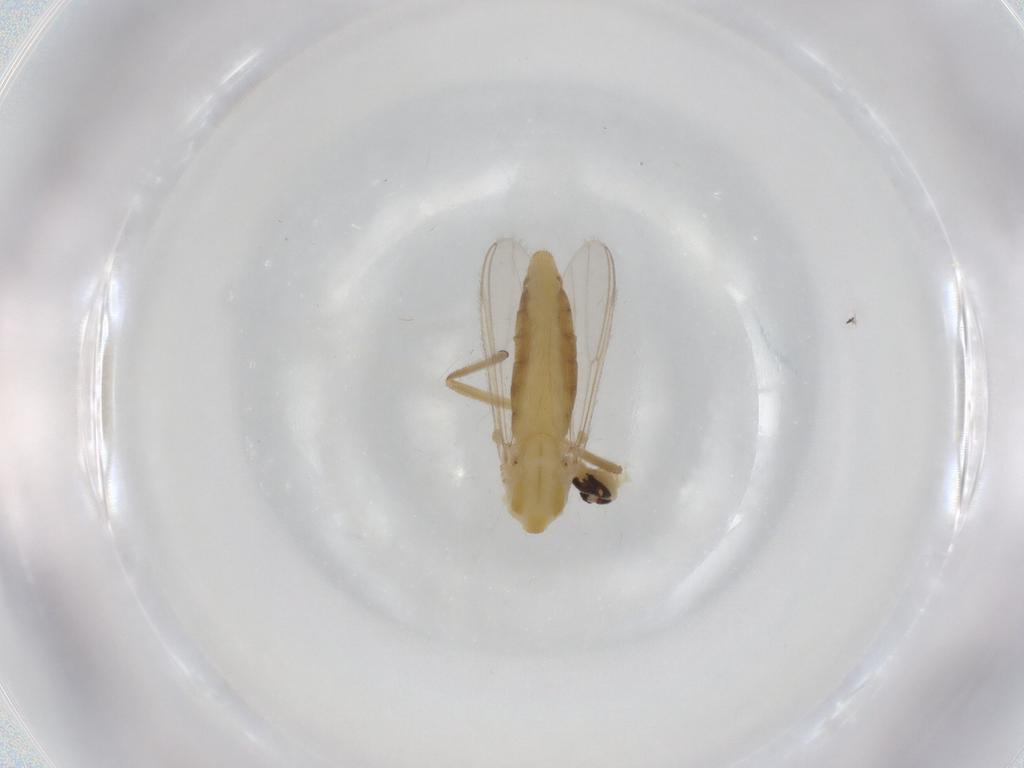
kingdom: Animalia
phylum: Arthropoda
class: Insecta
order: Diptera
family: Chironomidae
